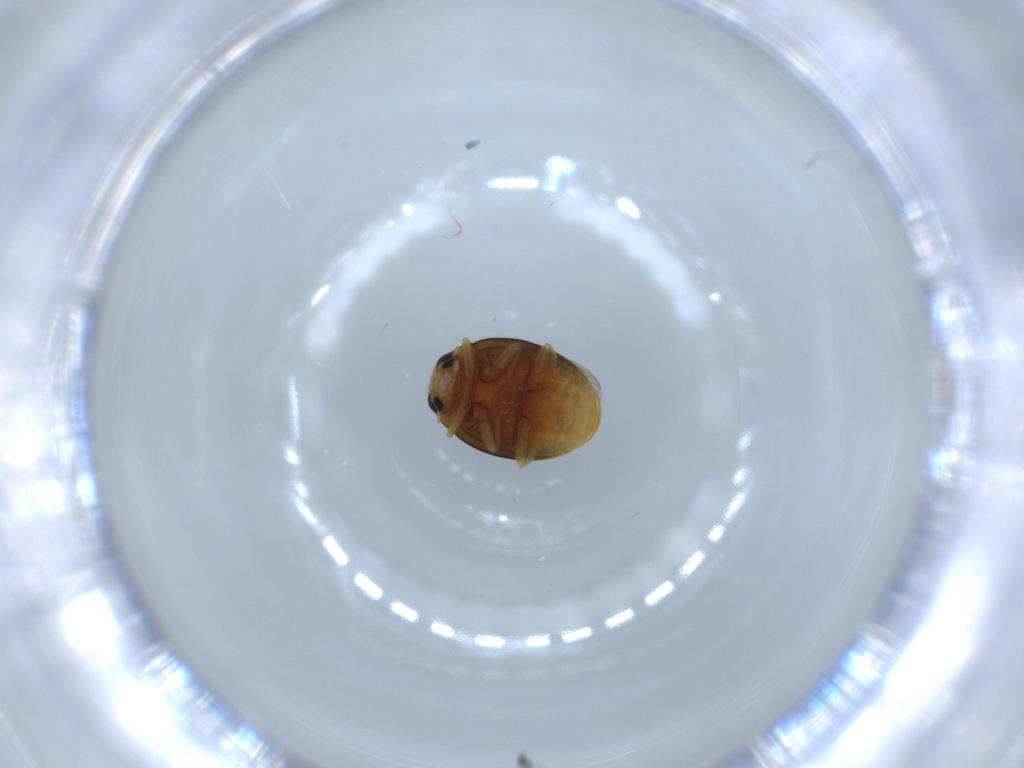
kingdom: Animalia
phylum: Arthropoda
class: Insecta
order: Coleoptera
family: Coccinellidae
